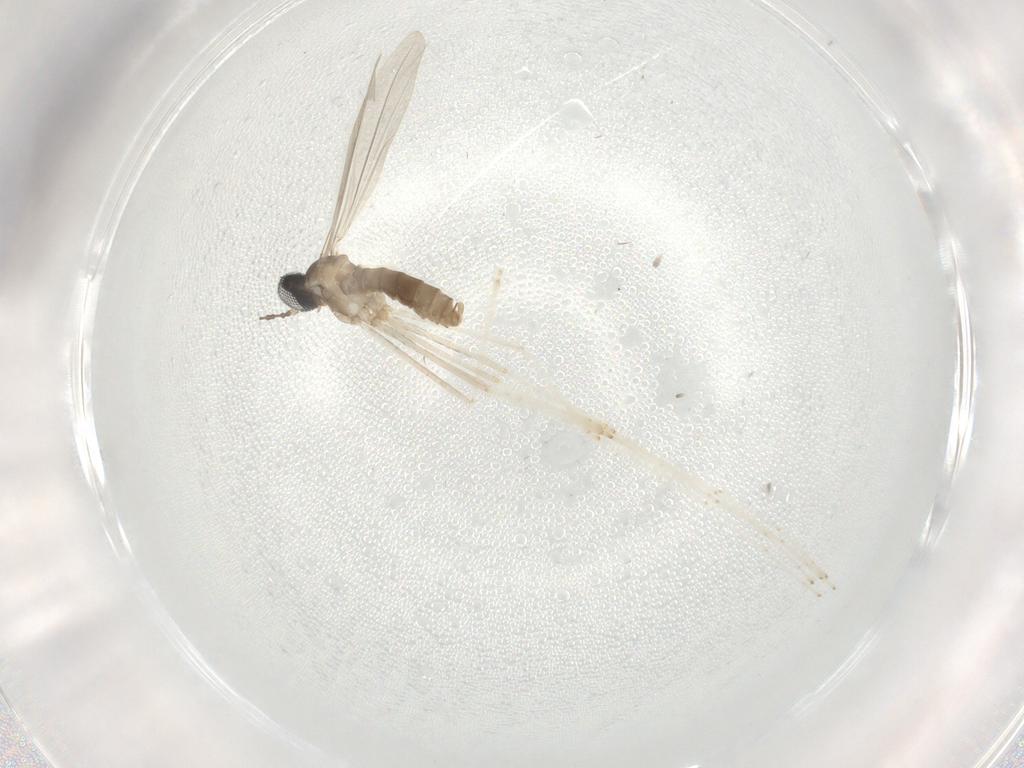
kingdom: Animalia
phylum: Arthropoda
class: Insecta
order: Diptera
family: Cecidomyiidae
